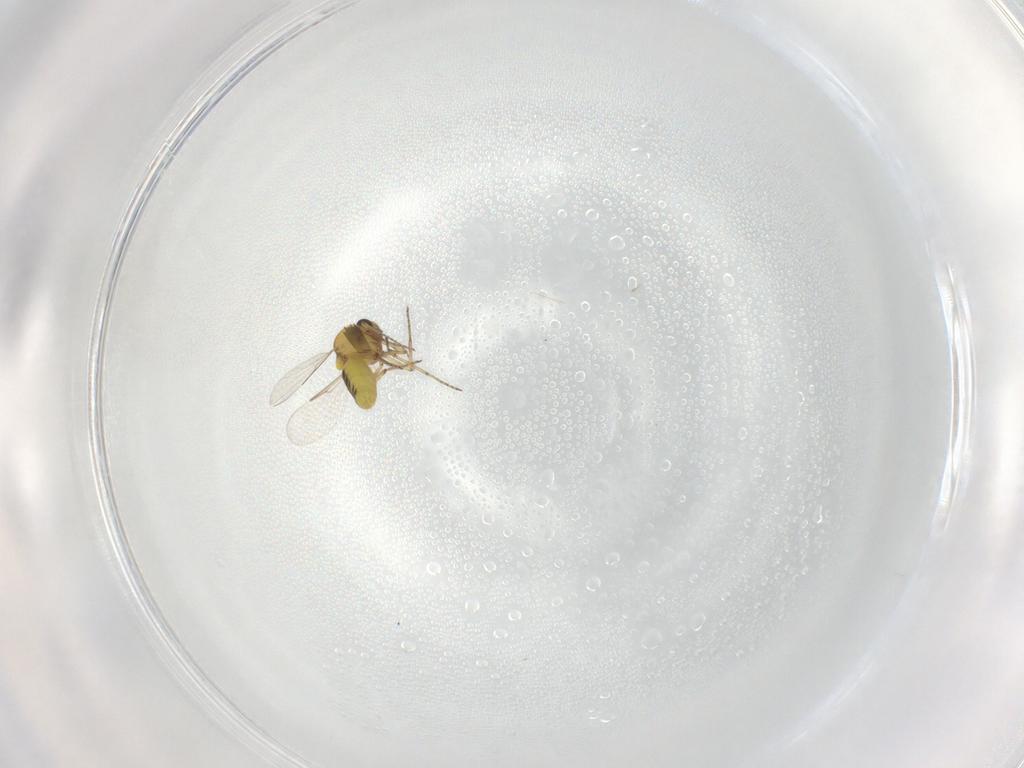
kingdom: Animalia
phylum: Arthropoda
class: Insecta
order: Diptera
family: Ceratopogonidae
